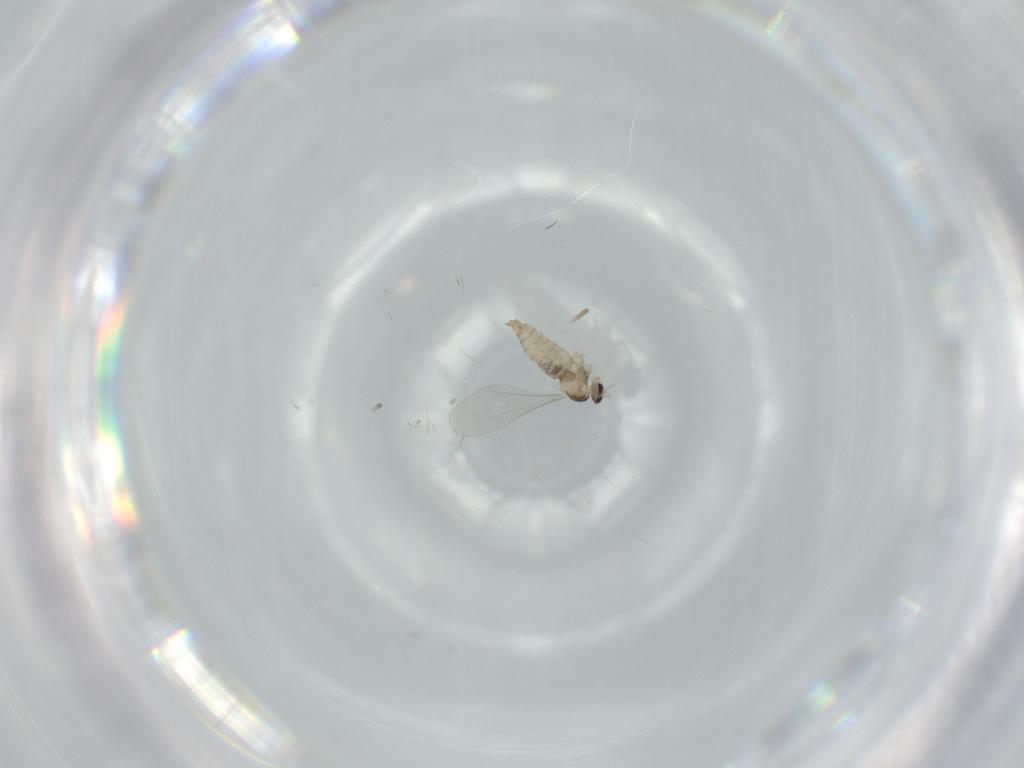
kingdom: Animalia
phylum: Arthropoda
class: Insecta
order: Diptera
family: Cecidomyiidae
